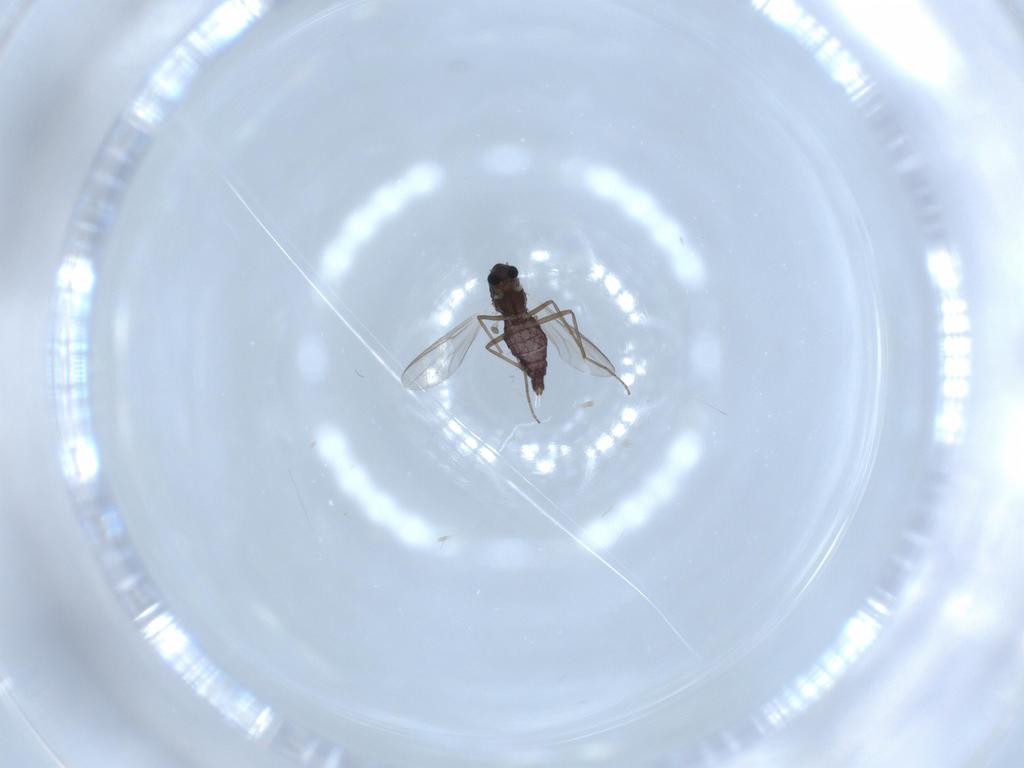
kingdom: Animalia
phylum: Arthropoda
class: Insecta
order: Diptera
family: Chironomidae
